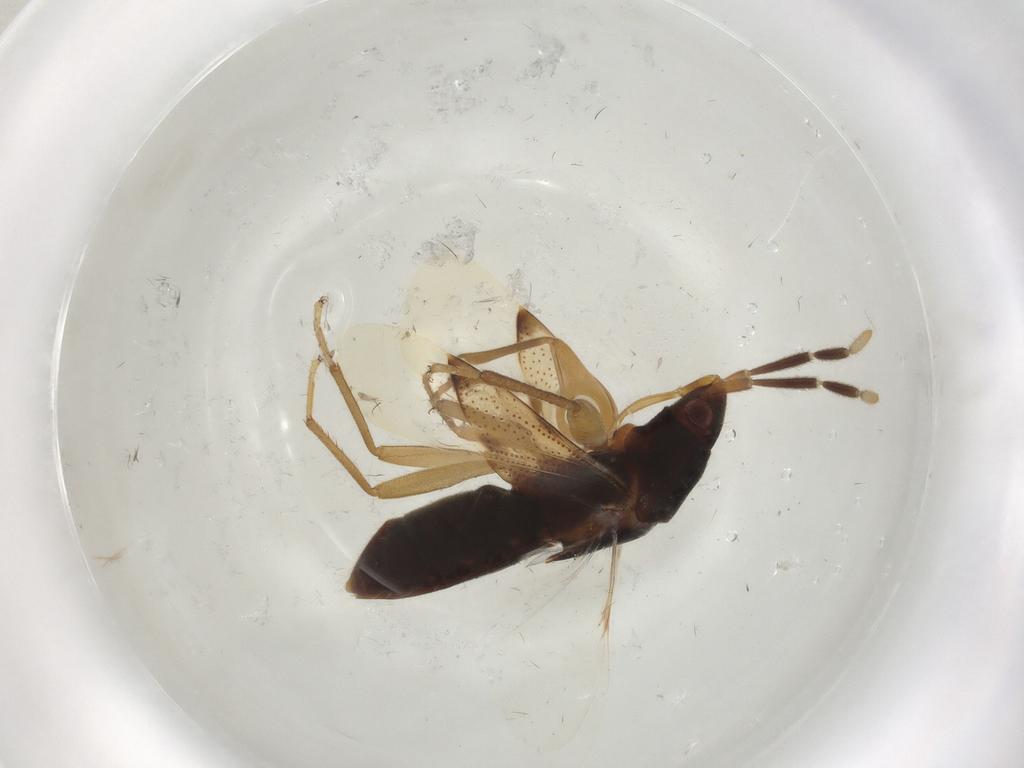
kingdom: Animalia
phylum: Arthropoda
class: Insecta
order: Hemiptera
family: Rhyparochromidae
